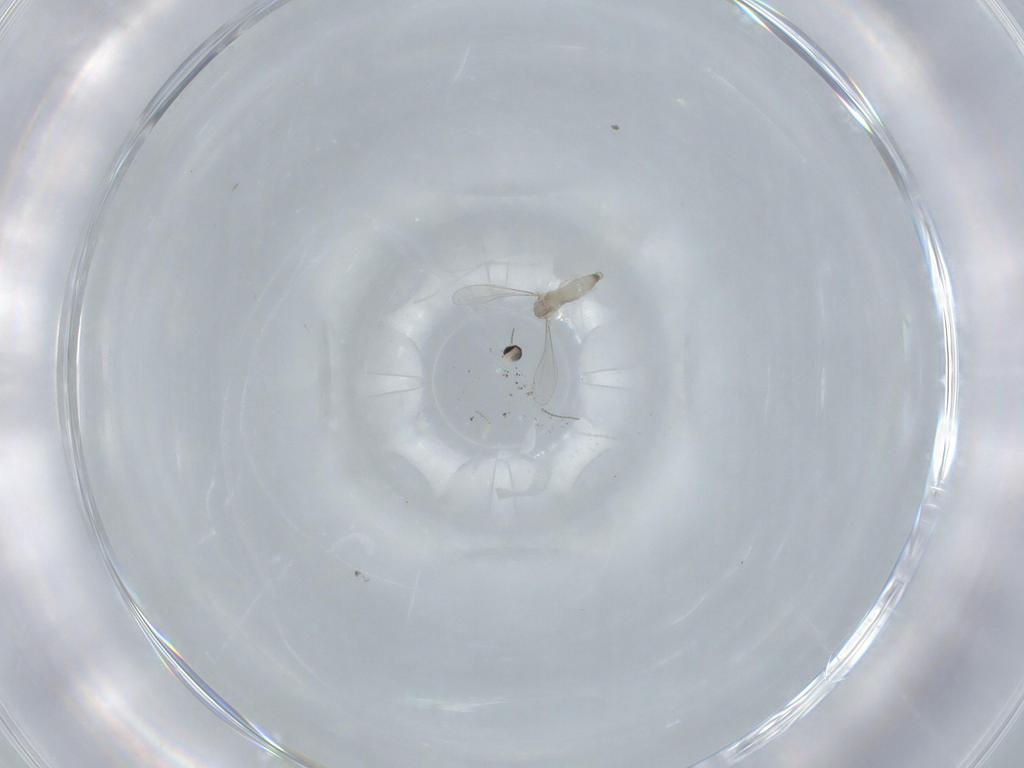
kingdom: Animalia
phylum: Arthropoda
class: Insecta
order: Diptera
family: Cecidomyiidae
